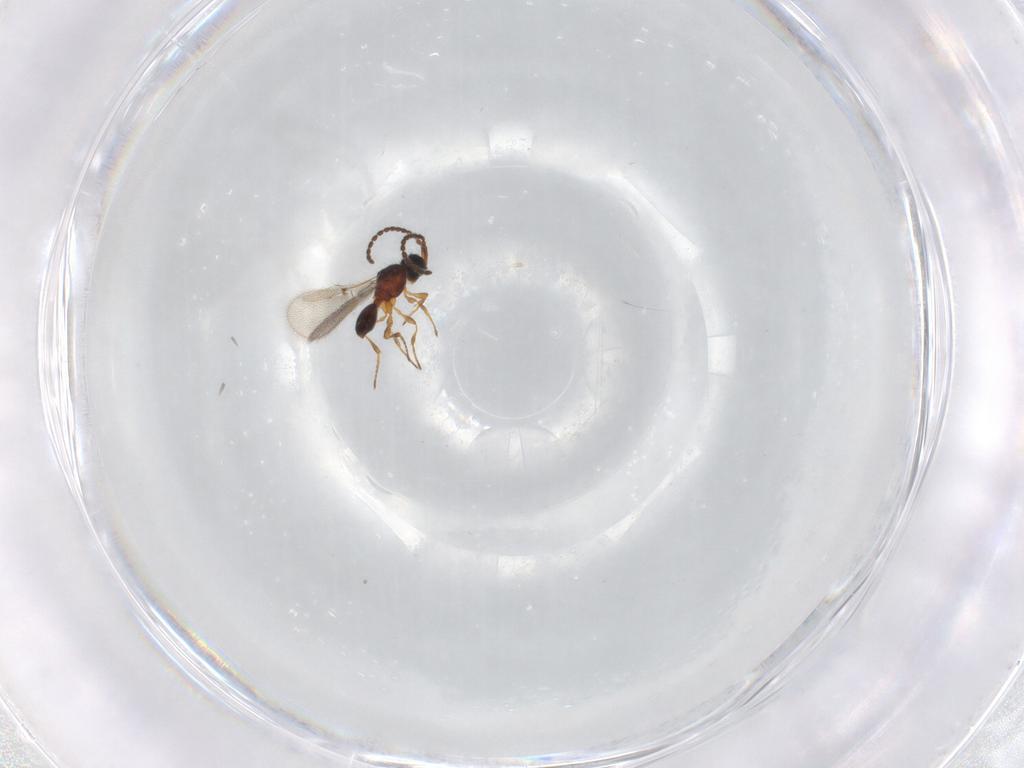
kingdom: Animalia
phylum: Arthropoda
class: Insecta
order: Hymenoptera
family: Diapriidae
